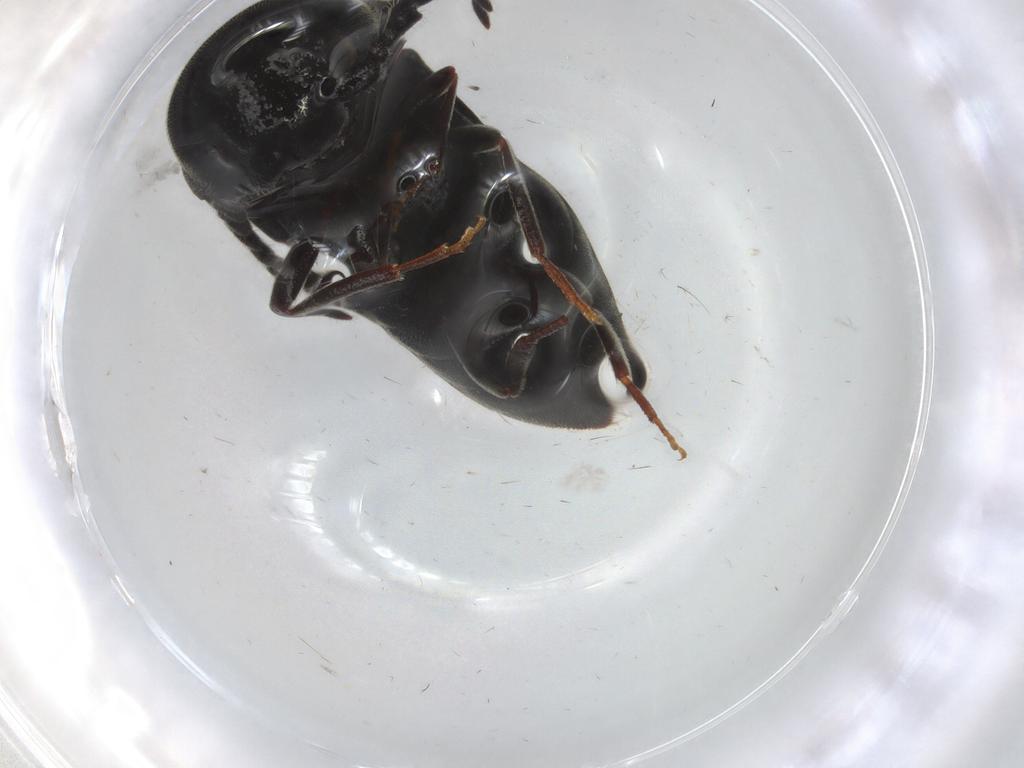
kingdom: Animalia
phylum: Arthropoda
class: Insecta
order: Coleoptera
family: Eucnemidae
